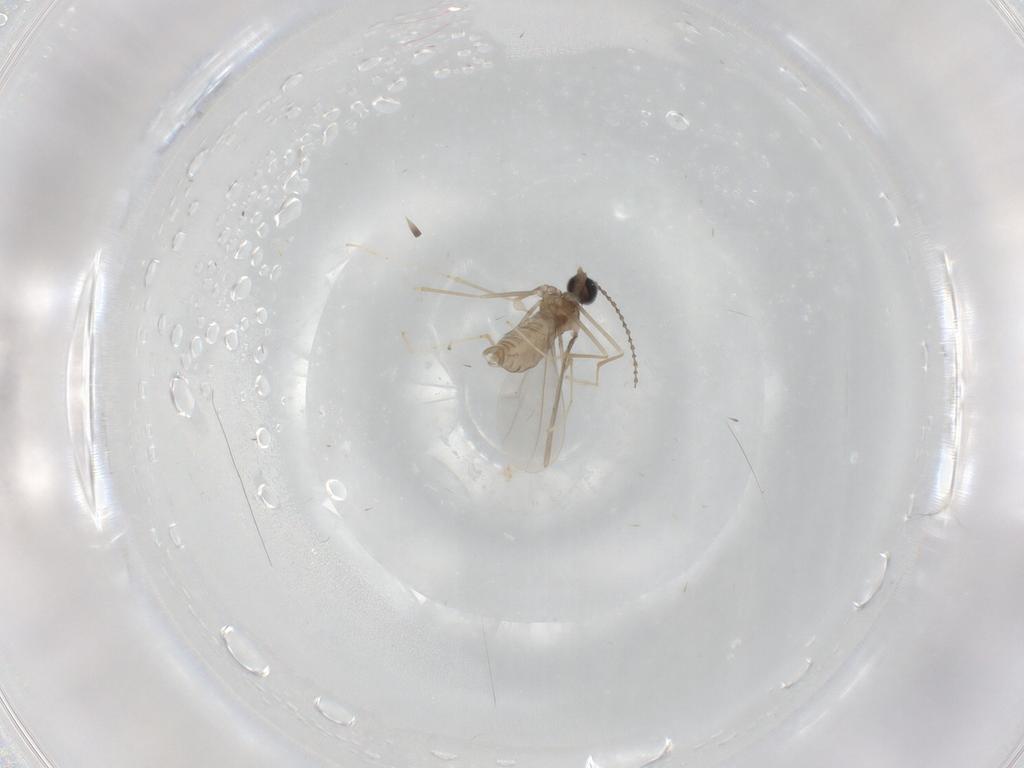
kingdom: Animalia
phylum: Arthropoda
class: Insecta
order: Diptera
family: Cecidomyiidae
